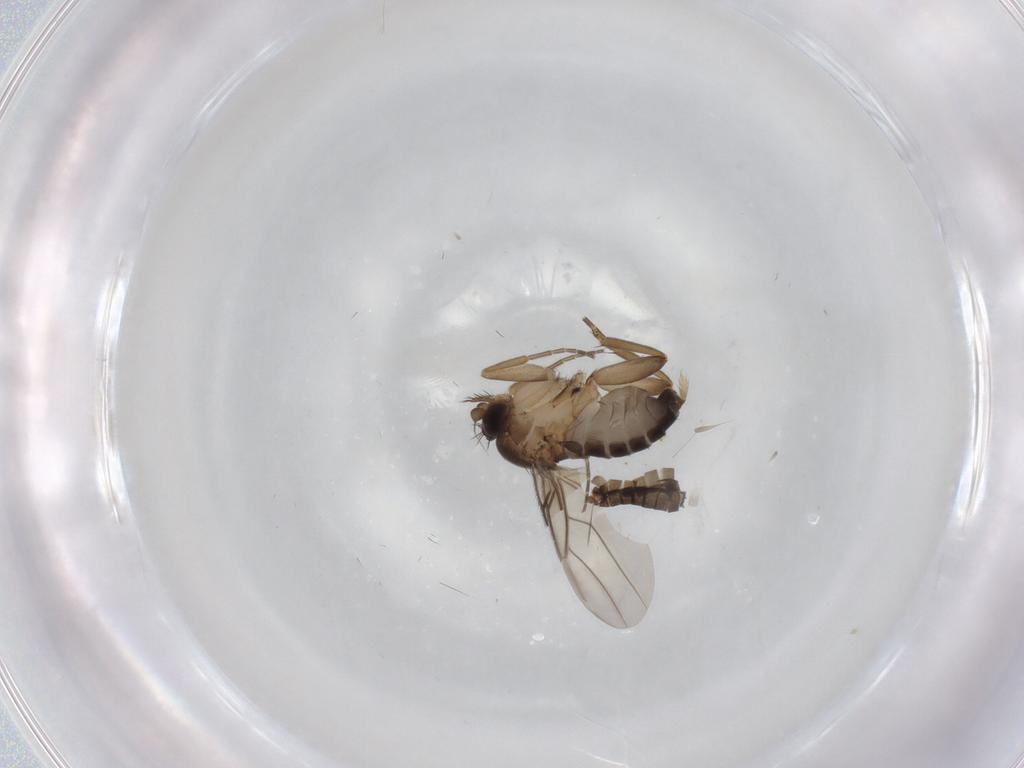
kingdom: Animalia
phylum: Arthropoda
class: Insecta
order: Diptera
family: Chironomidae
